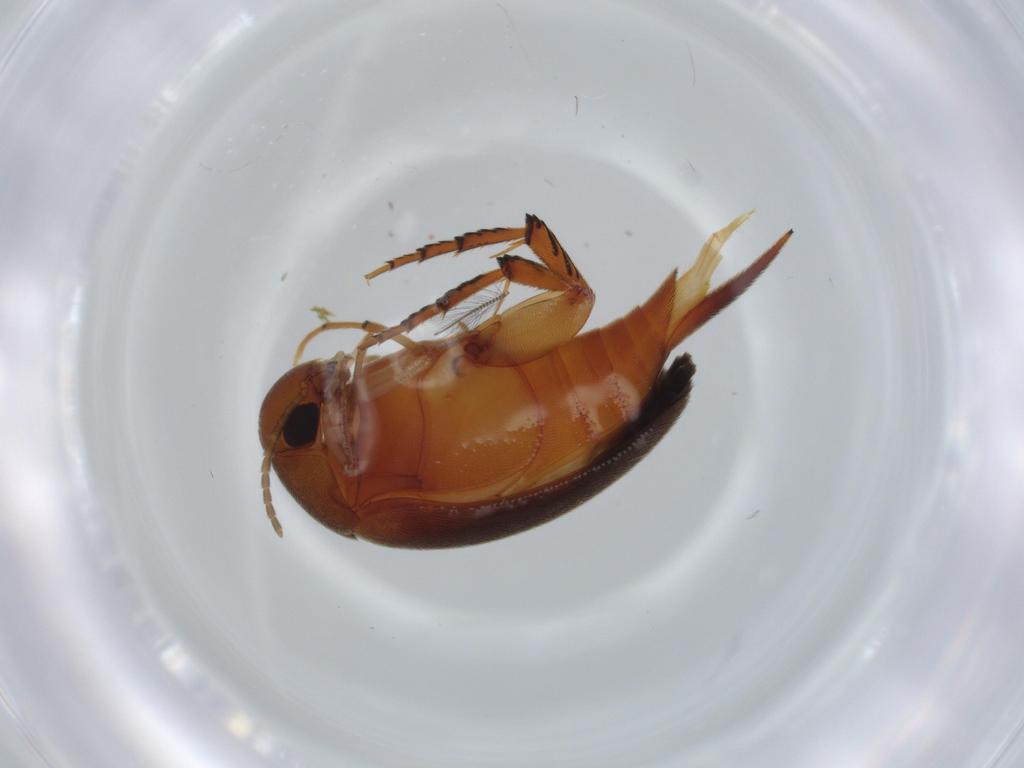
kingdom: Animalia
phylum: Arthropoda
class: Insecta
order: Coleoptera
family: Mordellidae
